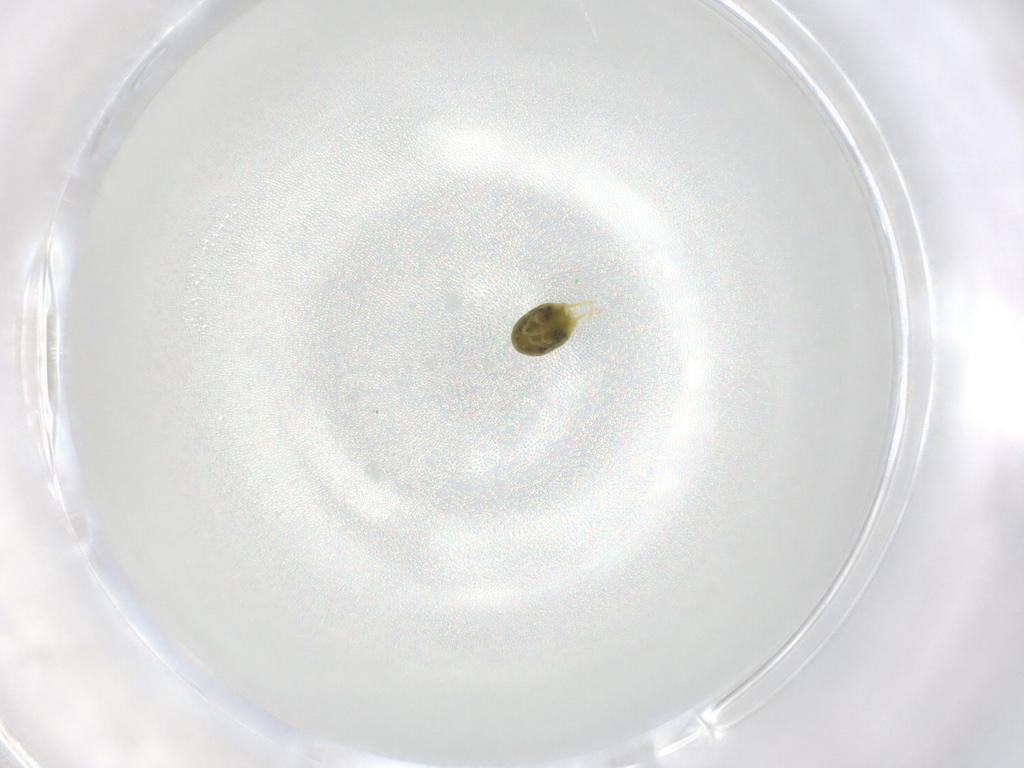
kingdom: Animalia
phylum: Arthropoda
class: Arachnida
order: Trombidiformes
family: Tetranychidae
